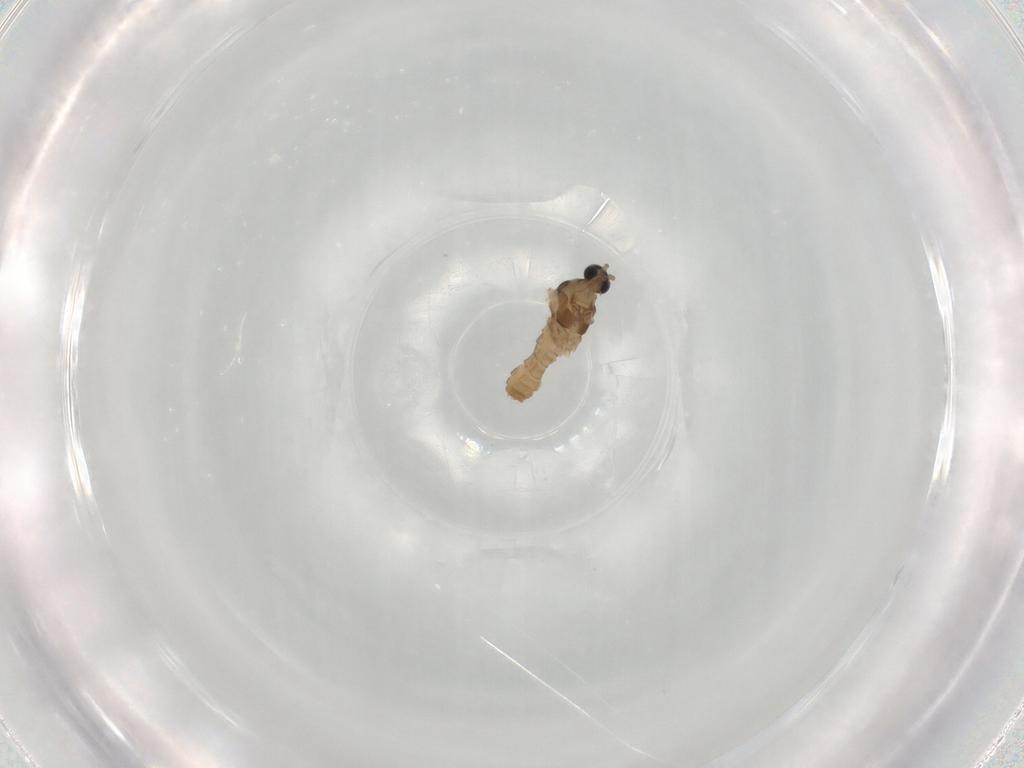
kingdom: Animalia
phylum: Arthropoda
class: Insecta
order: Diptera
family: Cecidomyiidae
